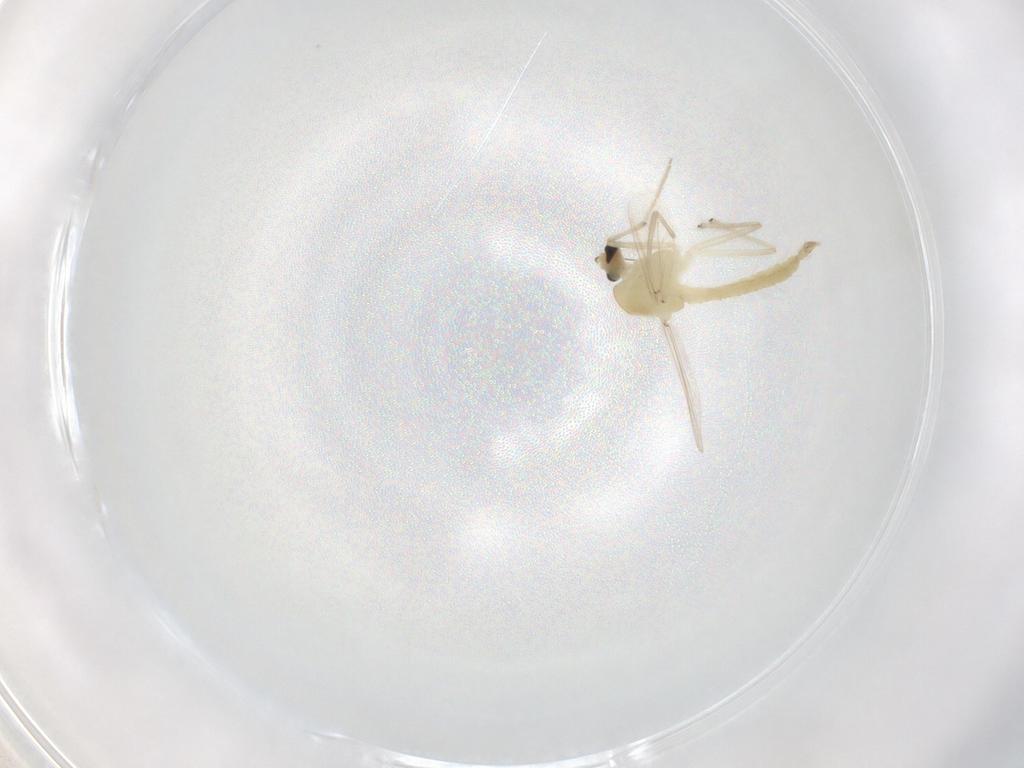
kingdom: Animalia
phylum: Arthropoda
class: Insecta
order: Diptera
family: Chironomidae
